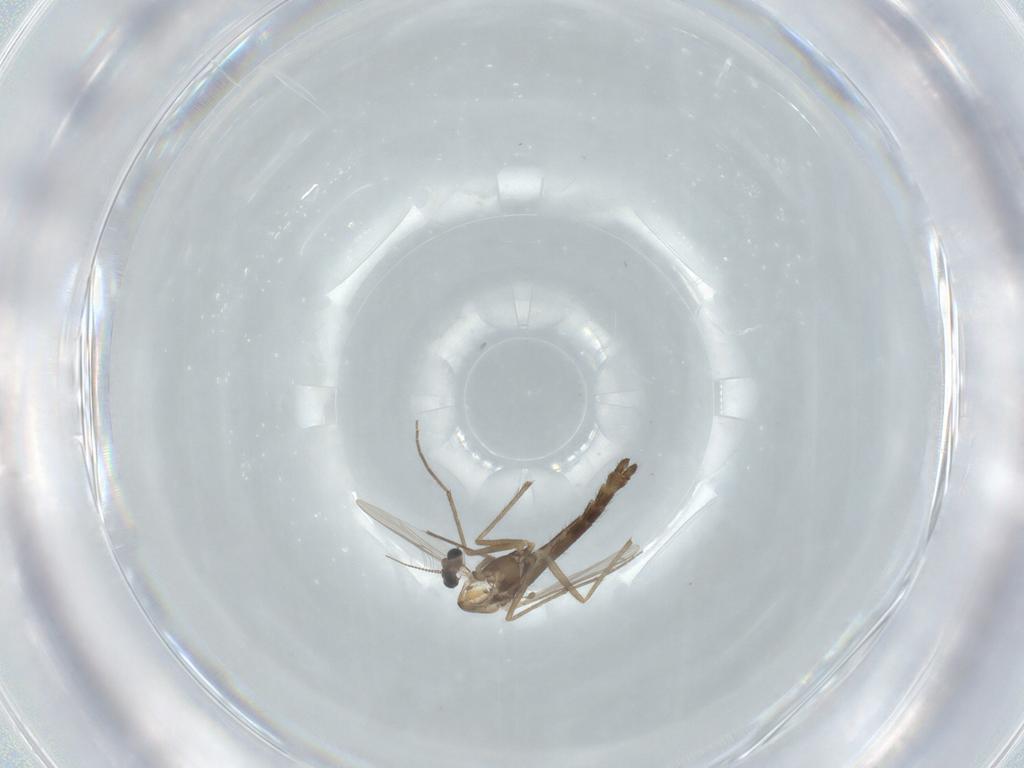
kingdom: Animalia
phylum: Arthropoda
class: Insecta
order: Diptera
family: Chironomidae
